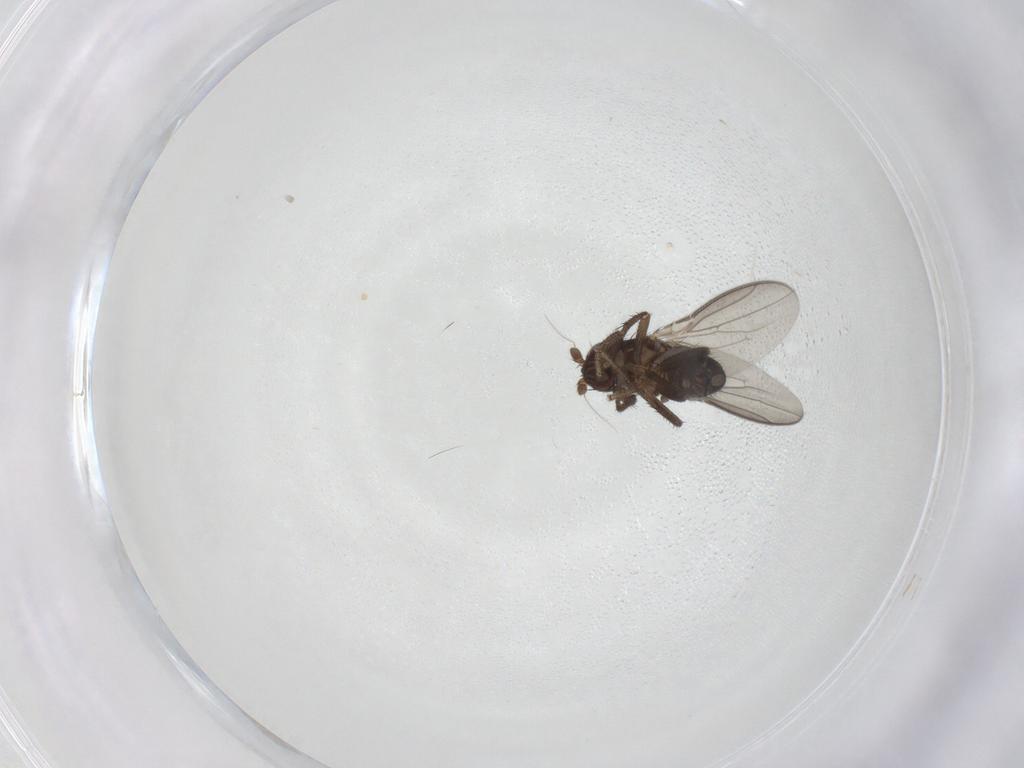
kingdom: Animalia
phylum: Arthropoda
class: Insecta
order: Diptera
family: Sphaeroceridae
